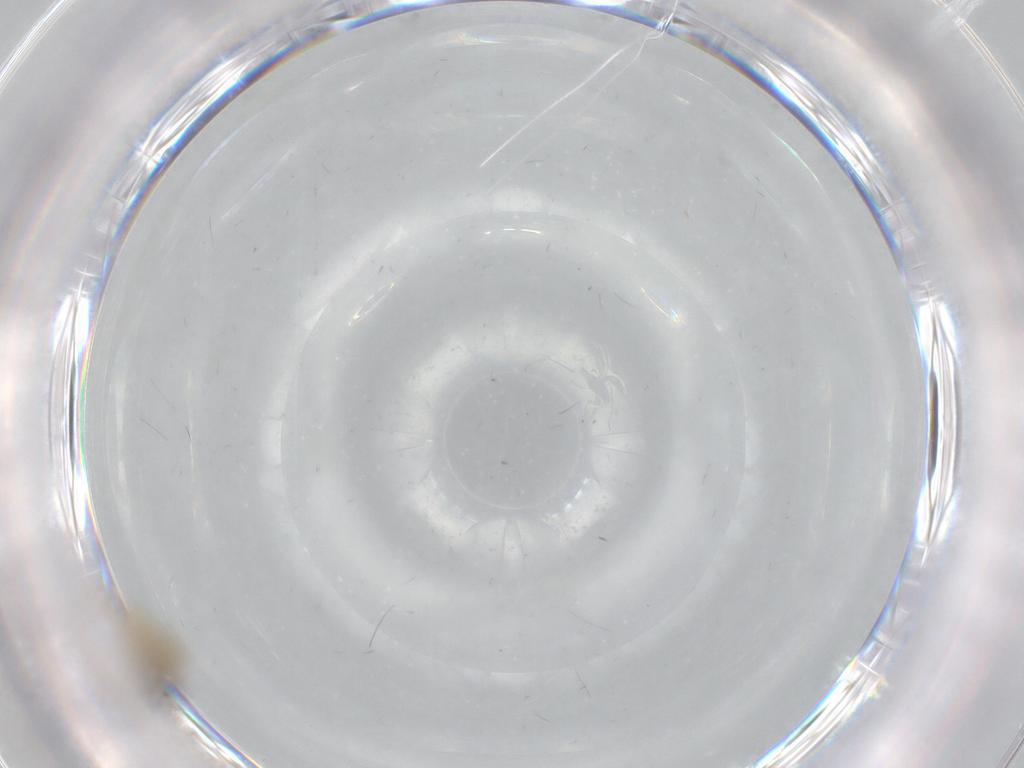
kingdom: Animalia
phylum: Arthropoda
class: Insecta
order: Diptera
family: Cecidomyiidae
